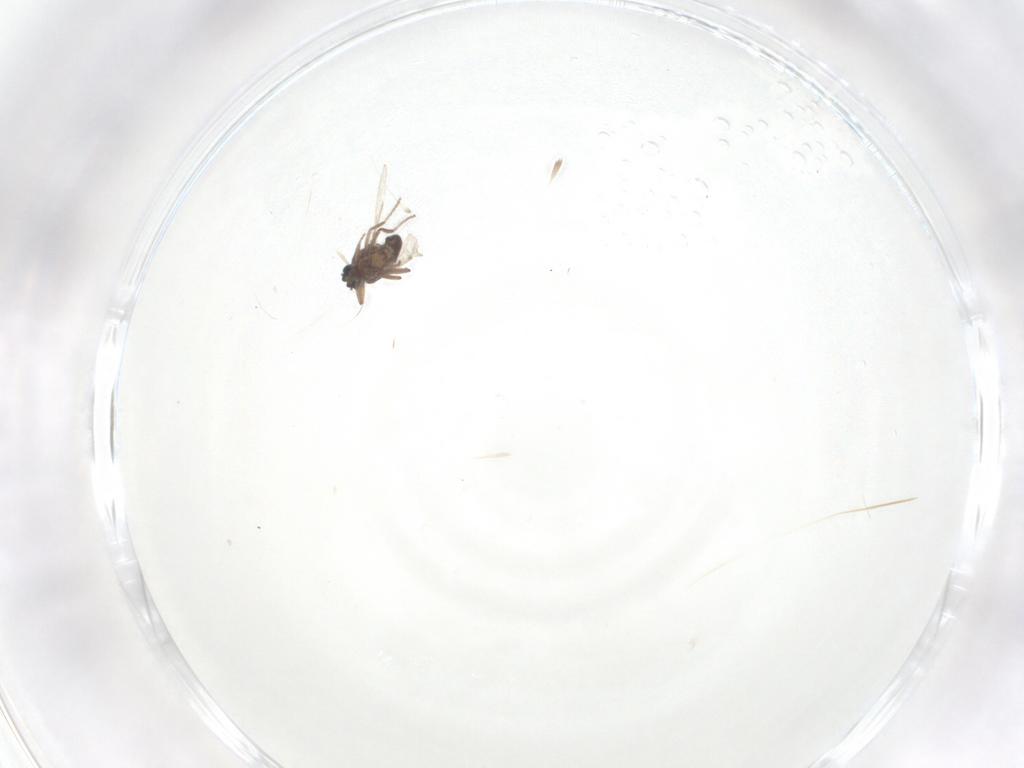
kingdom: Animalia
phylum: Arthropoda
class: Insecta
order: Diptera
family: Ceratopogonidae
